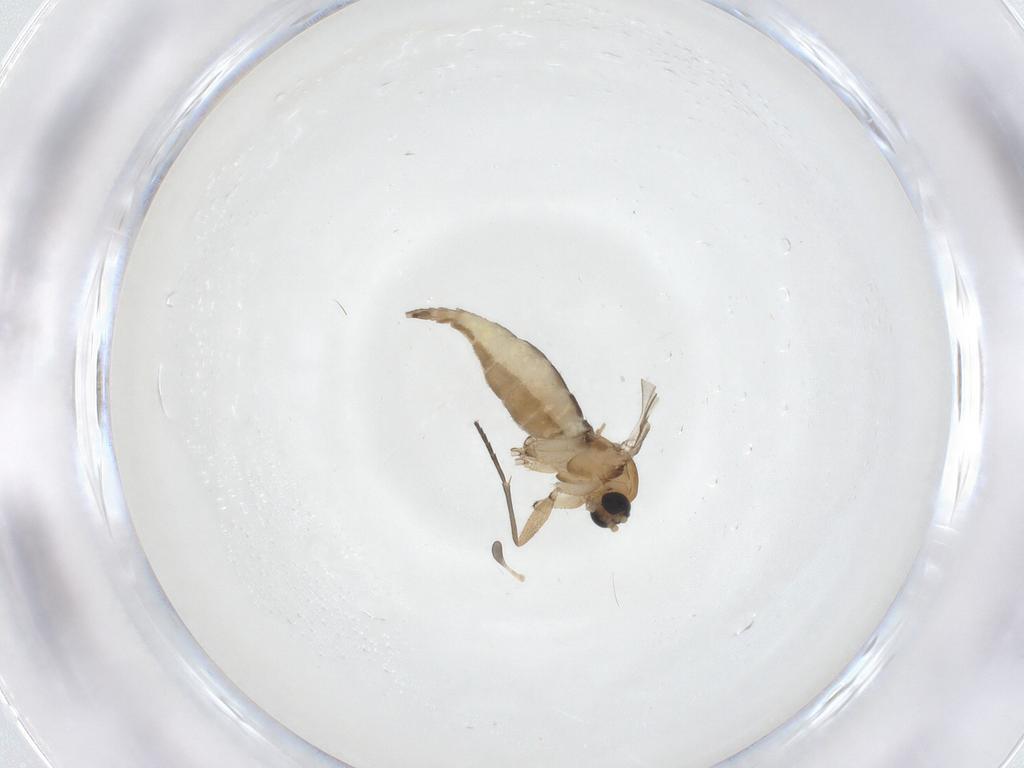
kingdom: Animalia
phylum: Arthropoda
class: Insecta
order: Diptera
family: Sciaridae
